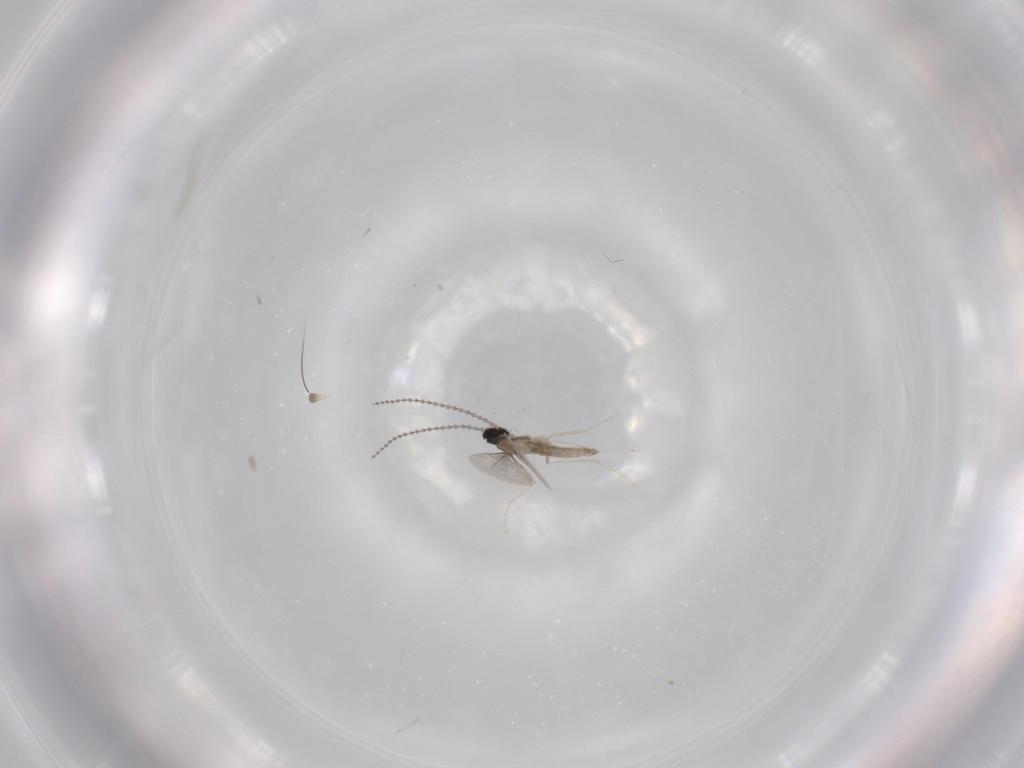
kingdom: Animalia
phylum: Arthropoda
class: Insecta
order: Diptera
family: Cecidomyiidae
